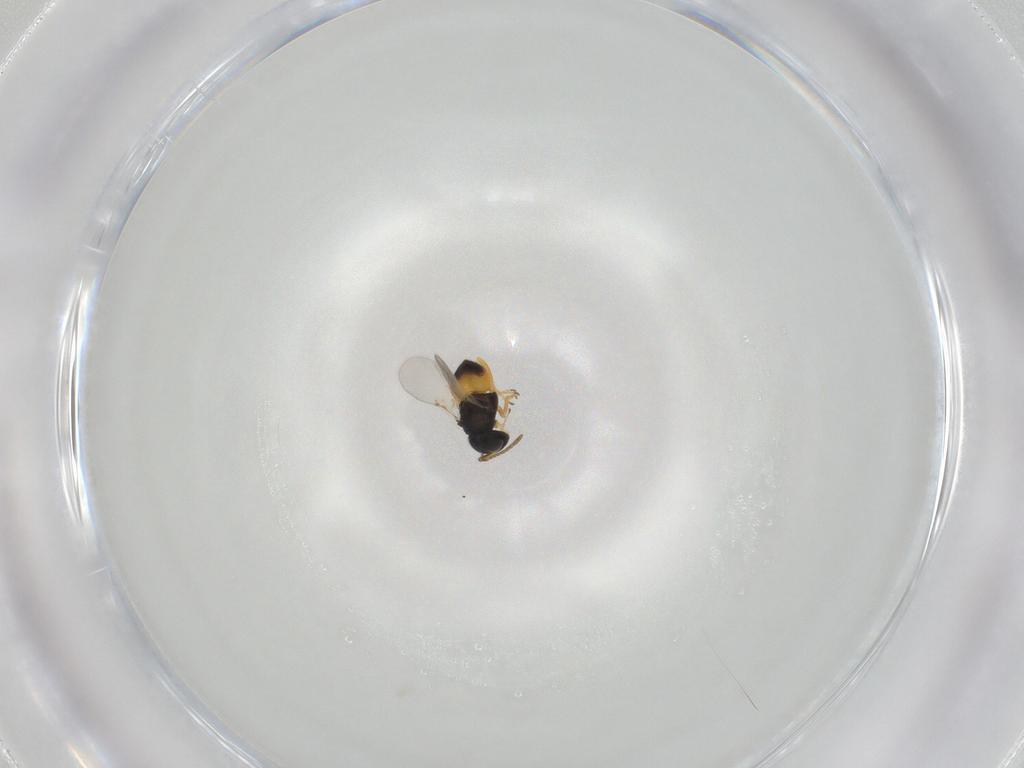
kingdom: Animalia
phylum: Arthropoda
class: Insecta
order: Hymenoptera
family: Encyrtidae
